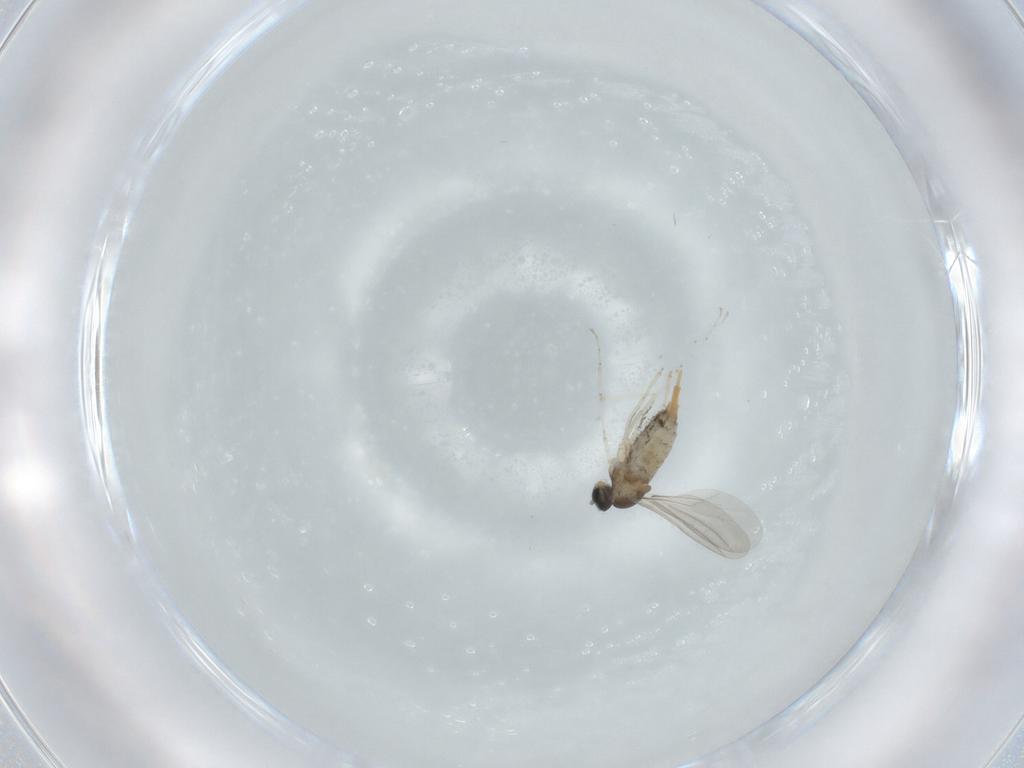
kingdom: Animalia
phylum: Arthropoda
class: Insecta
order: Diptera
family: Cecidomyiidae
